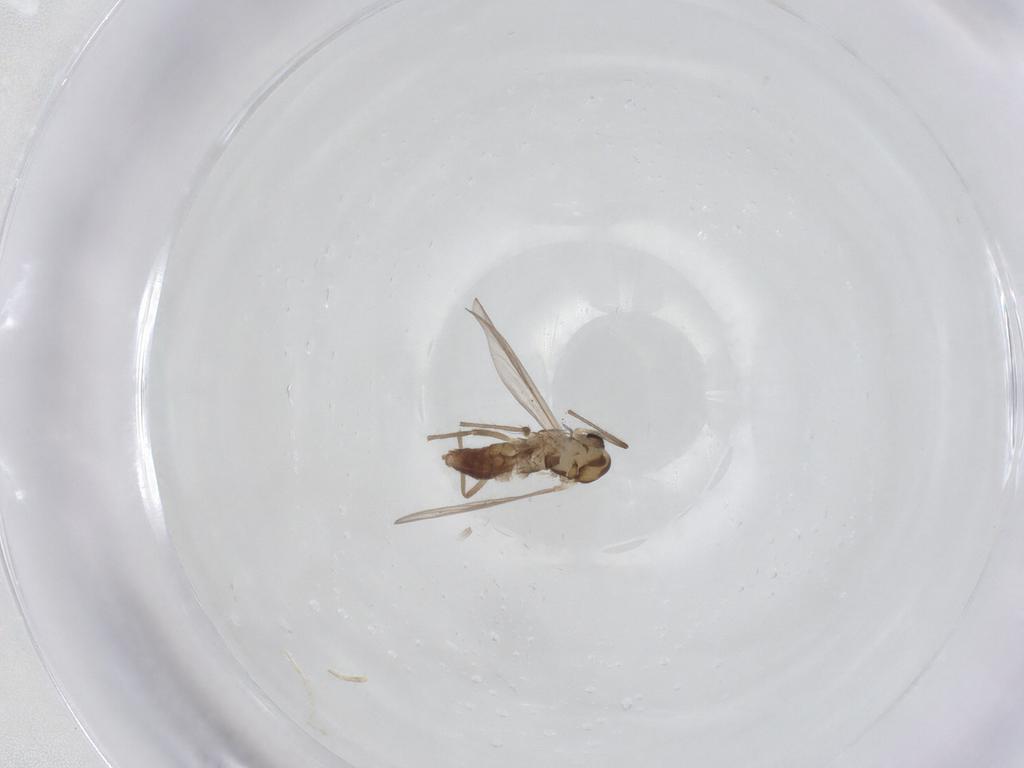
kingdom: Animalia
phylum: Arthropoda
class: Insecta
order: Diptera
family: Chironomidae
